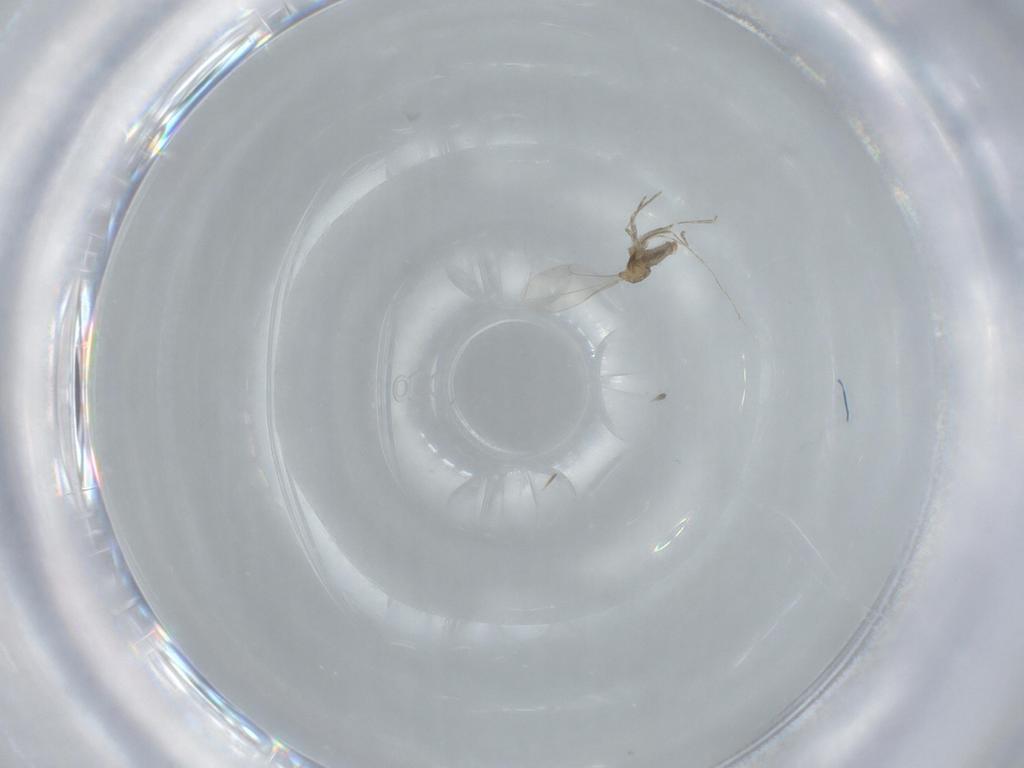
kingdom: Animalia
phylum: Arthropoda
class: Insecta
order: Diptera
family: Cecidomyiidae
